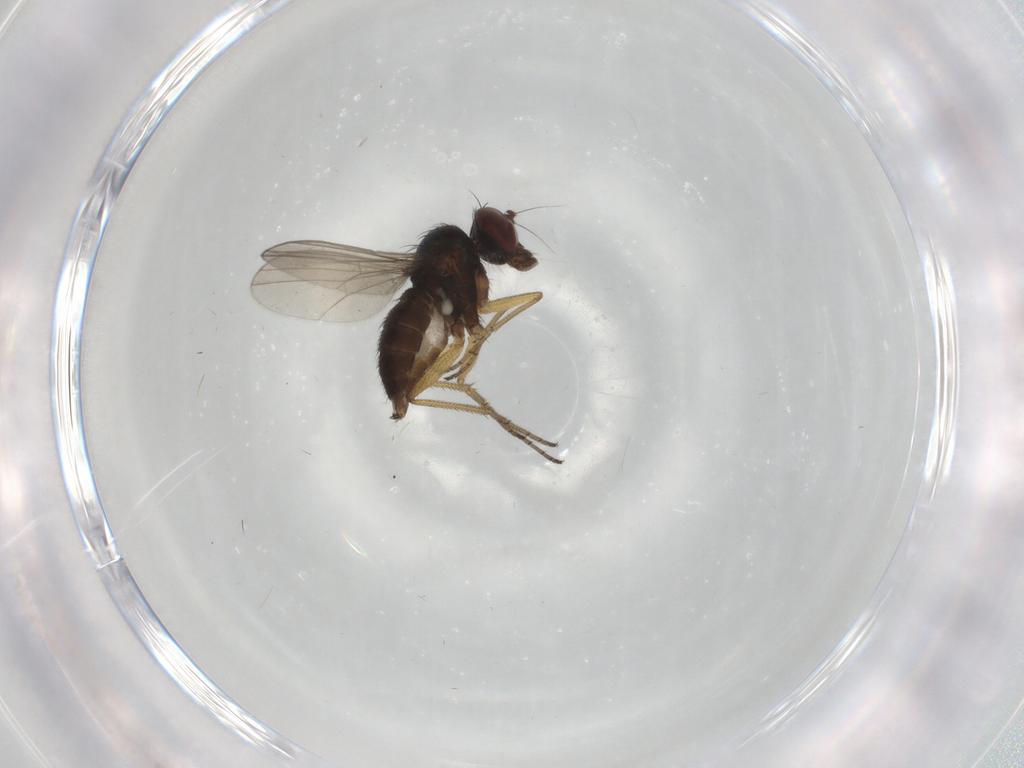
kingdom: Animalia
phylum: Arthropoda
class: Insecta
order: Diptera
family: Dolichopodidae
